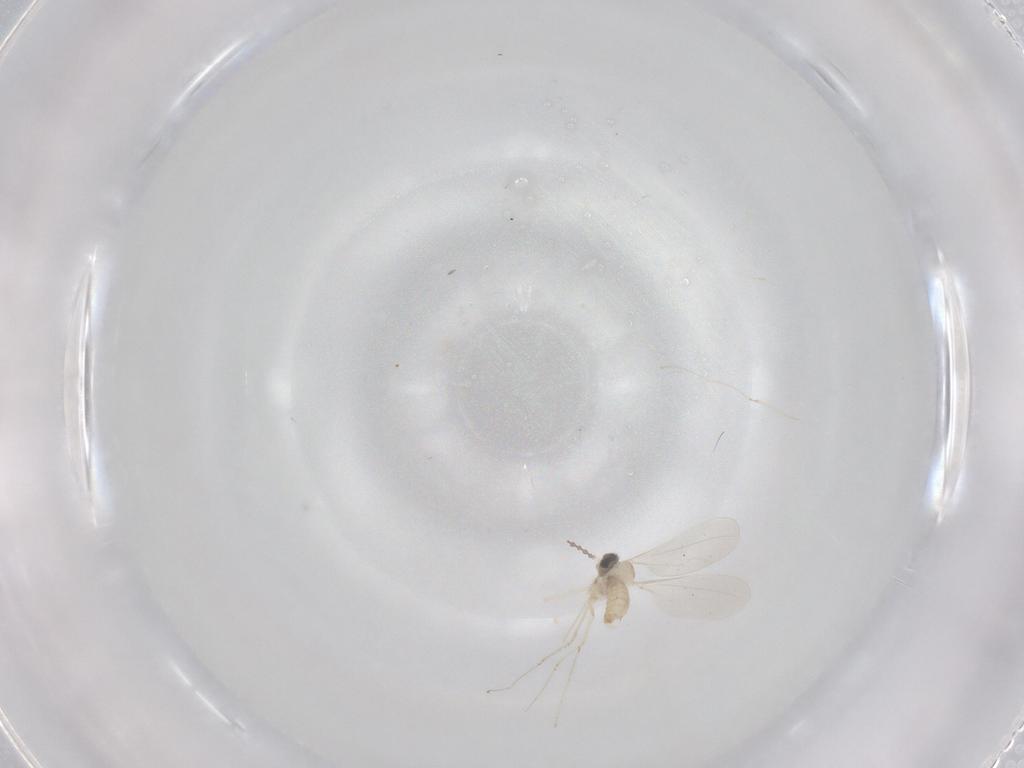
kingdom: Animalia
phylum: Arthropoda
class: Insecta
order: Diptera
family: Cecidomyiidae
